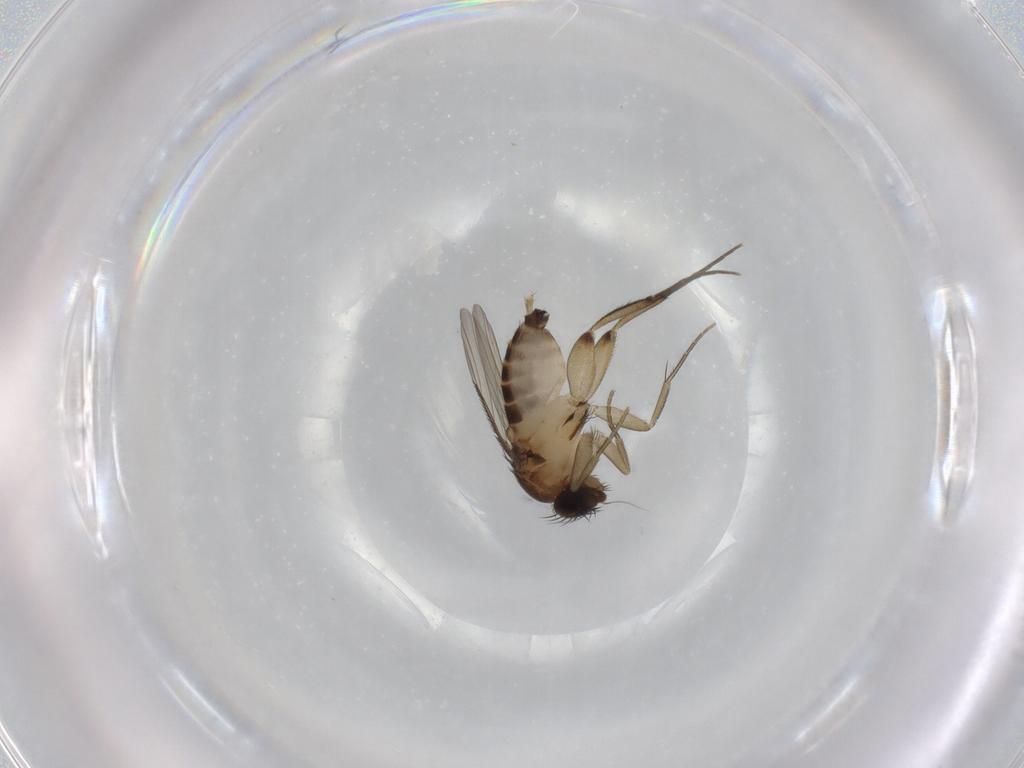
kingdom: Animalia
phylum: Arthropoda
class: Insecta
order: Diptera
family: Phoridae
